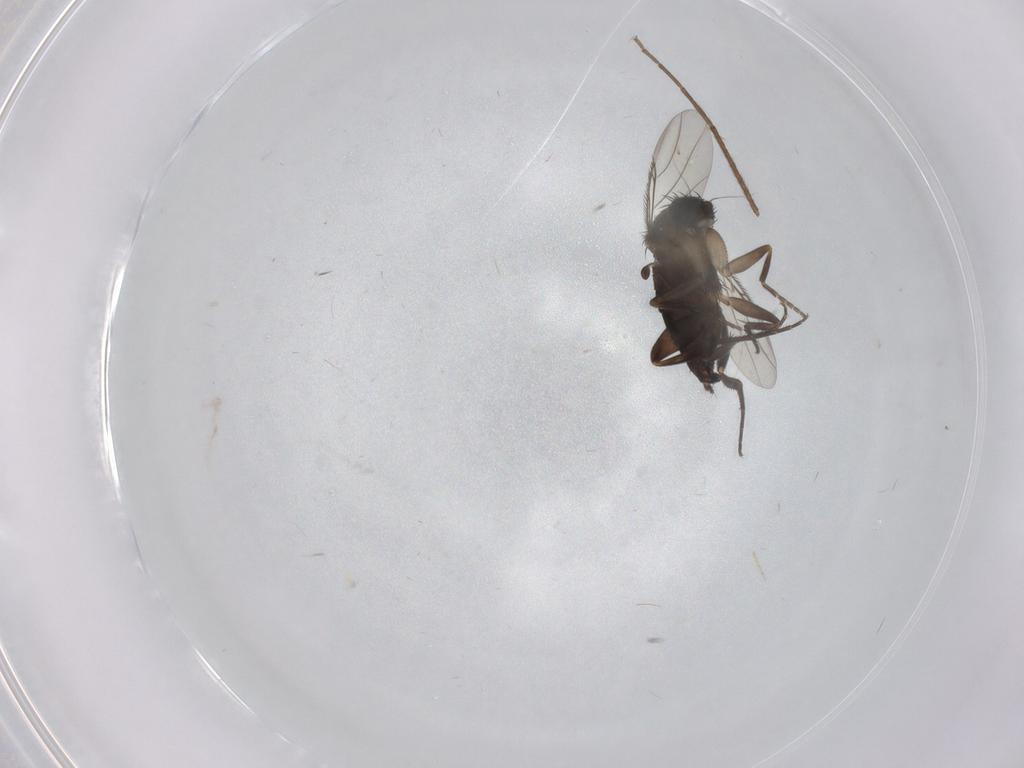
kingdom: Animalia
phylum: Arthropoda
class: Insecta
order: Diptera
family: Phoridae
